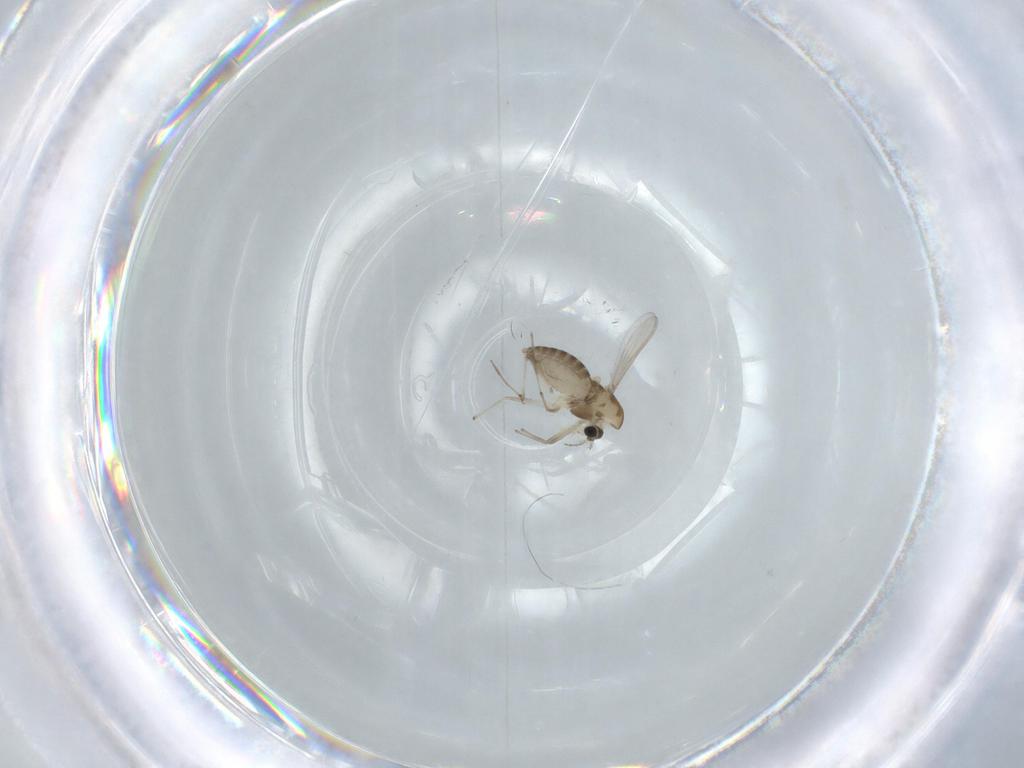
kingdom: Animalia
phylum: Arthropoda
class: Insecta
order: Diptera
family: Chironomidae
